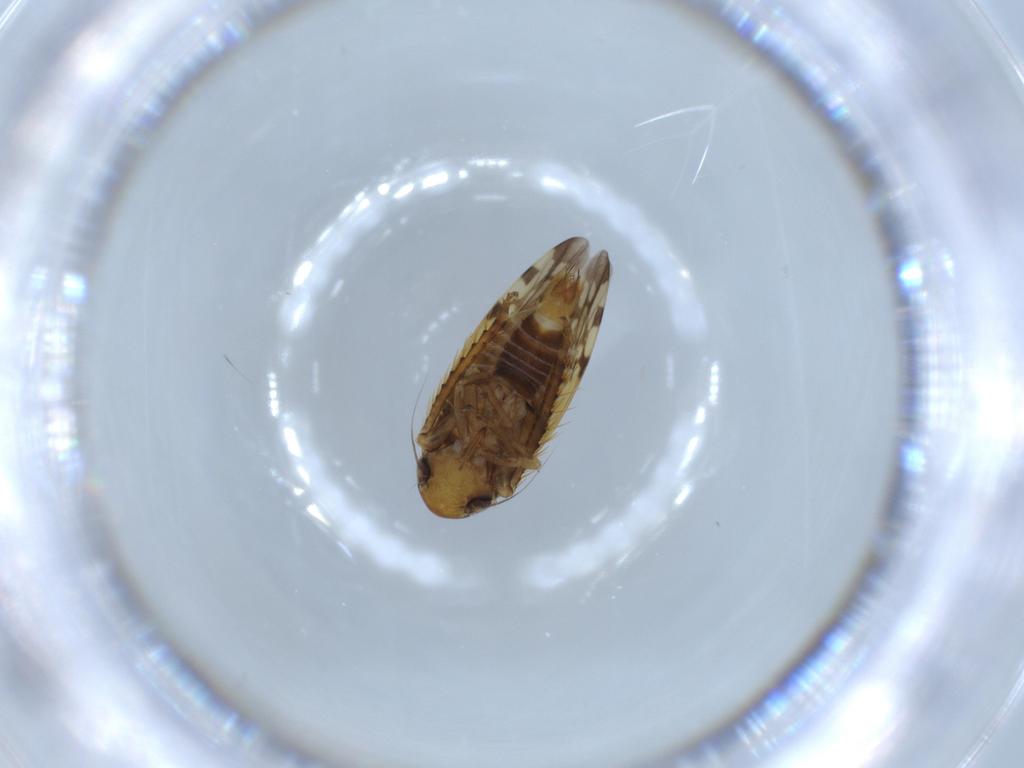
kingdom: Animalia
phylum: Arthropoda
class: Insecta
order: Hemiptera
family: Cicadellidae
